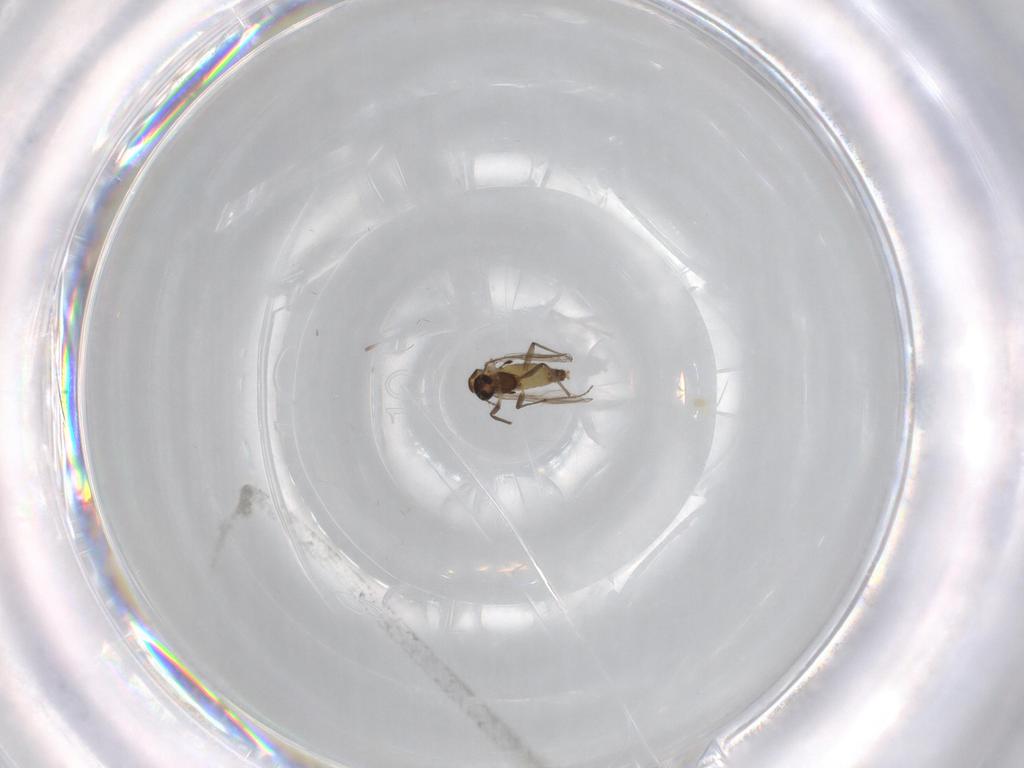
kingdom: Animalia
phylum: Arthropoda
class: Insecta
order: Diptera
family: Chironomidae
